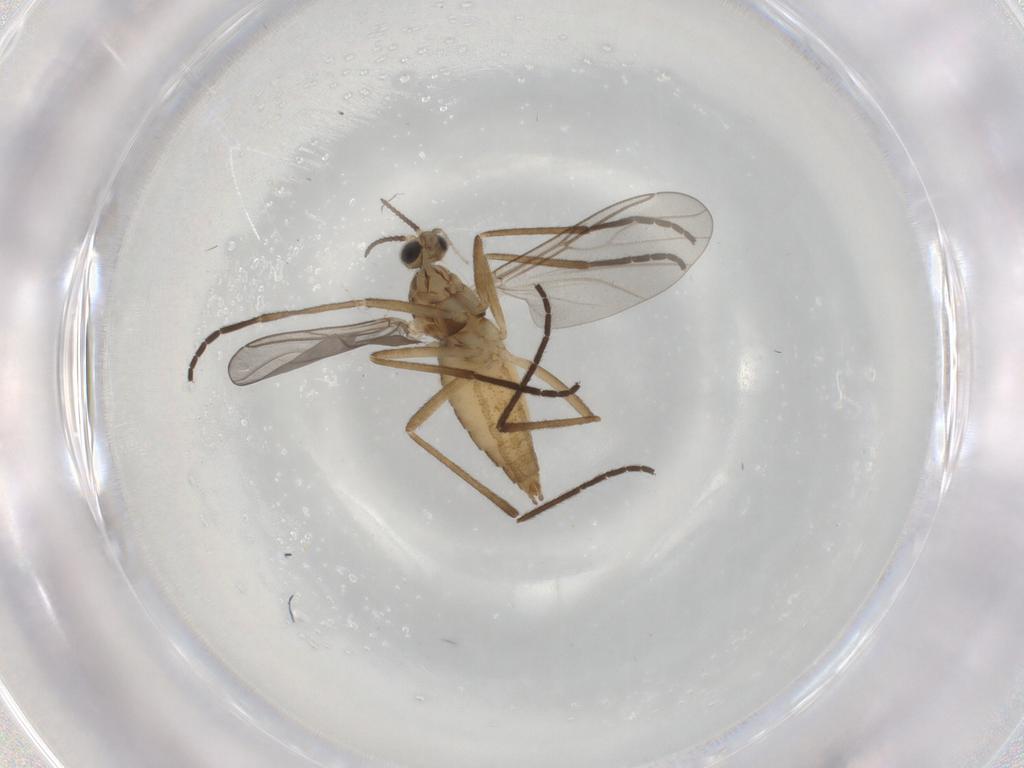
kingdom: Animalia
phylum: Arthropoda
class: Insecta
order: Diptera
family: Cecidomyiidae
